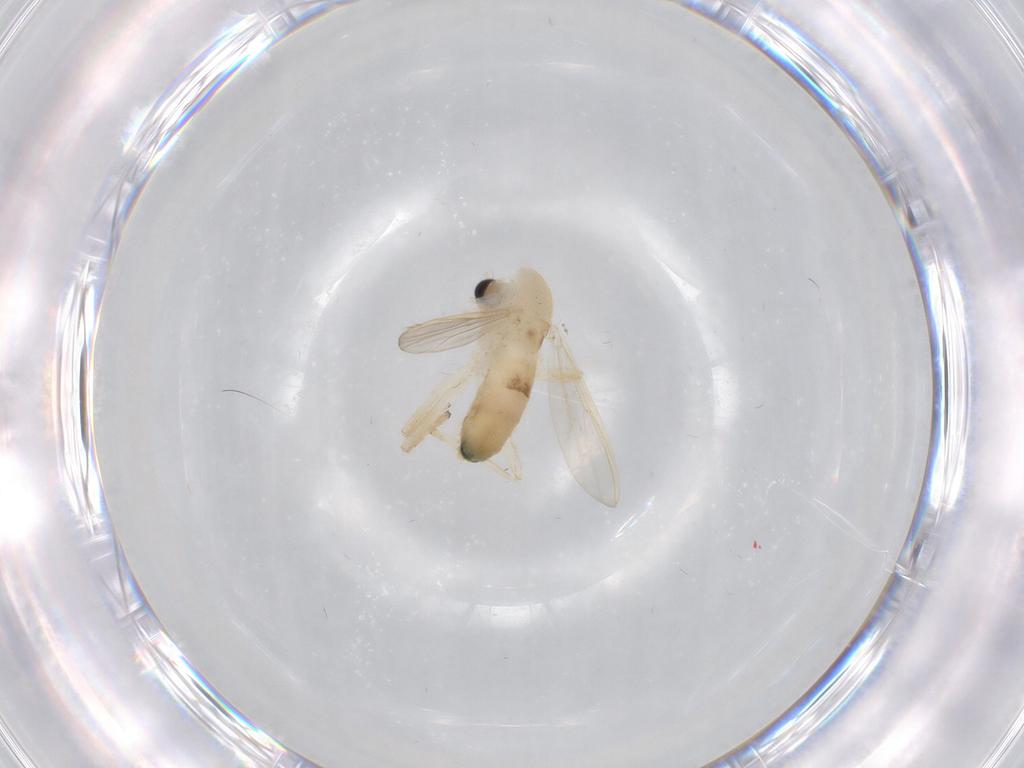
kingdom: Animalia
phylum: Arthropoda
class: Insecta
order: Diptera
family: Chironomidae
